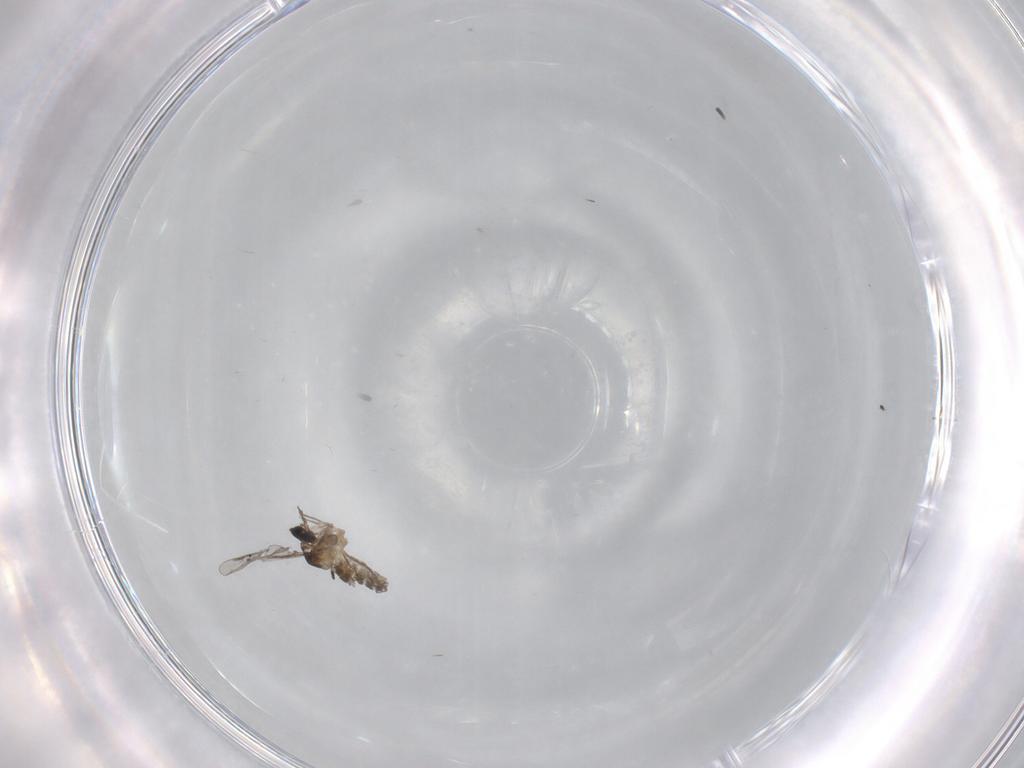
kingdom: Animalia
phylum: Arthropoda
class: Insecta
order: Diptera
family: Cecidomyiidae
